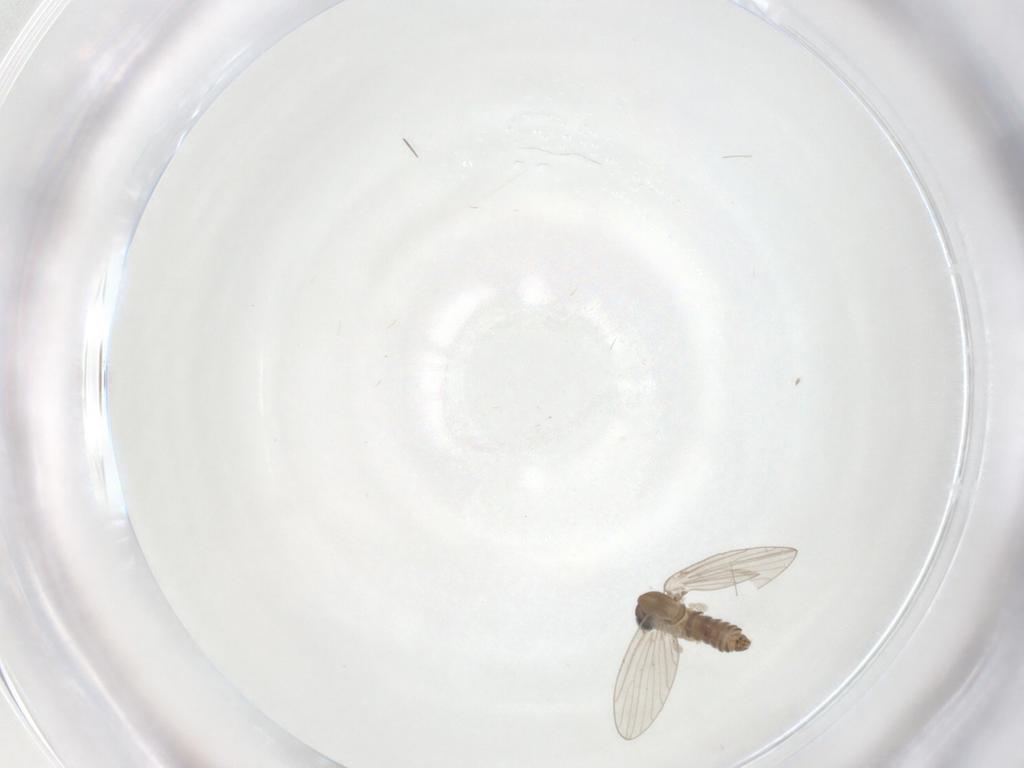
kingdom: Animalia
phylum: Arthropoda
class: Insecta
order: Diptera
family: Psychodidae
